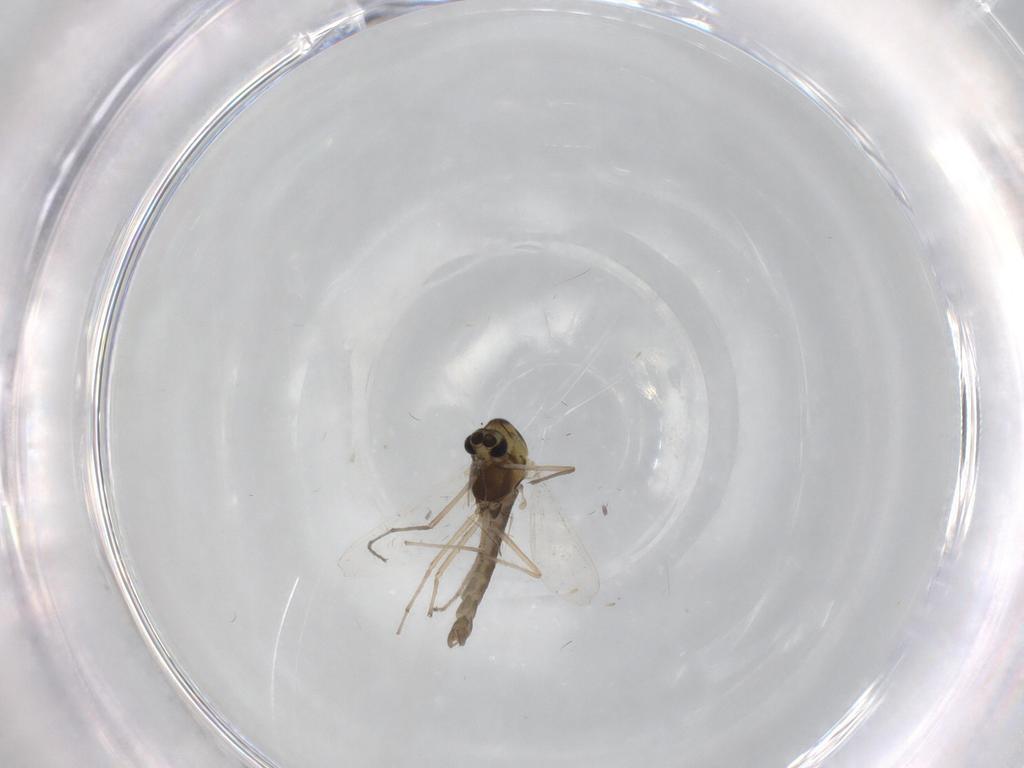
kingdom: Animalia
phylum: Arthropoda
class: Insecta
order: Diptera
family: Chironomidae
